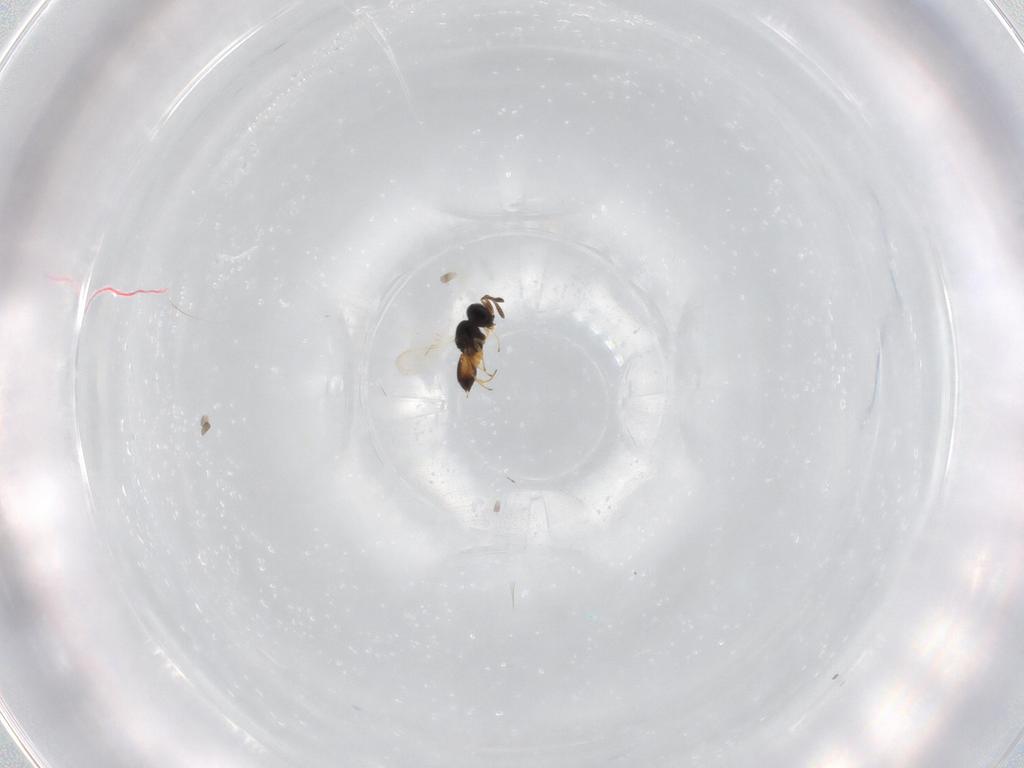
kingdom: Animalia
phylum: Arthropoda
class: Insecta
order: Hymenoptera
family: Scelionidae
